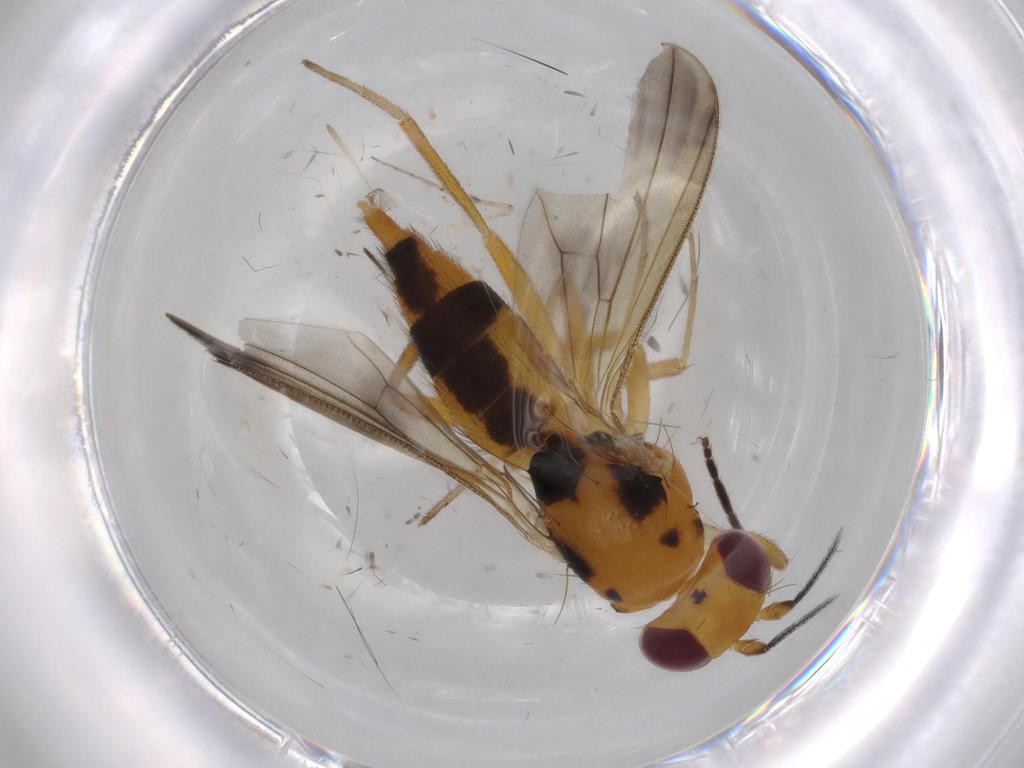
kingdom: Animalia
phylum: Arthropoda
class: Insecta
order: Diptera
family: Clusiidae
